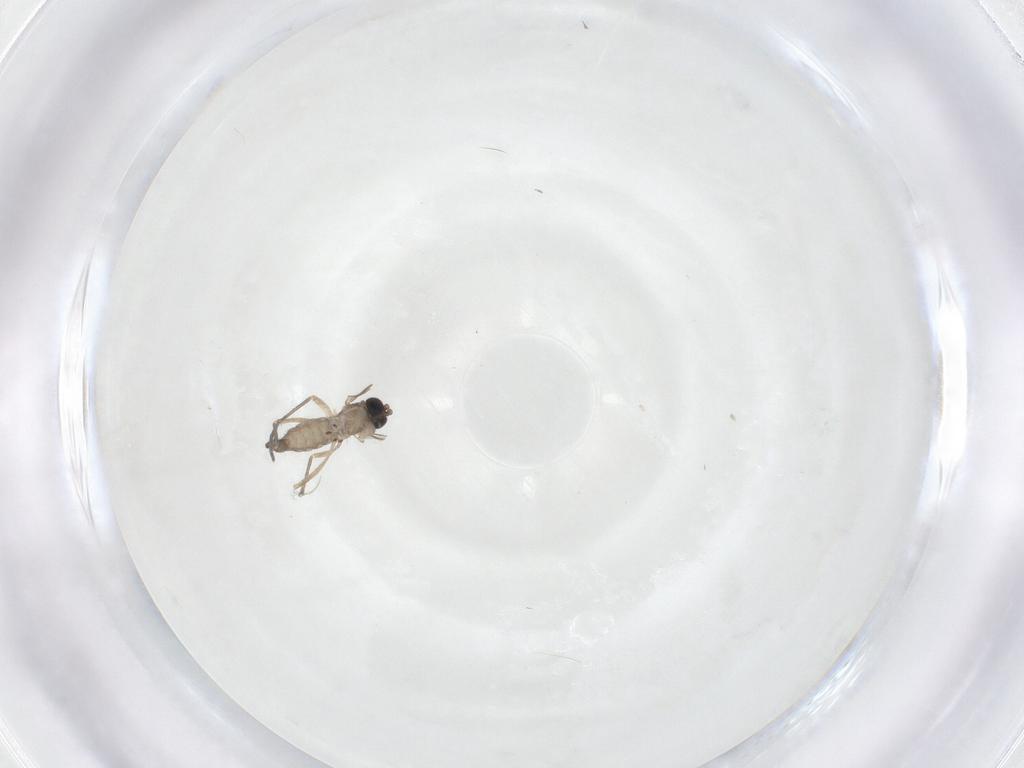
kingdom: Animalia
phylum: Arthropoda
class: Insecta
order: Diptera
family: Sciaridae
